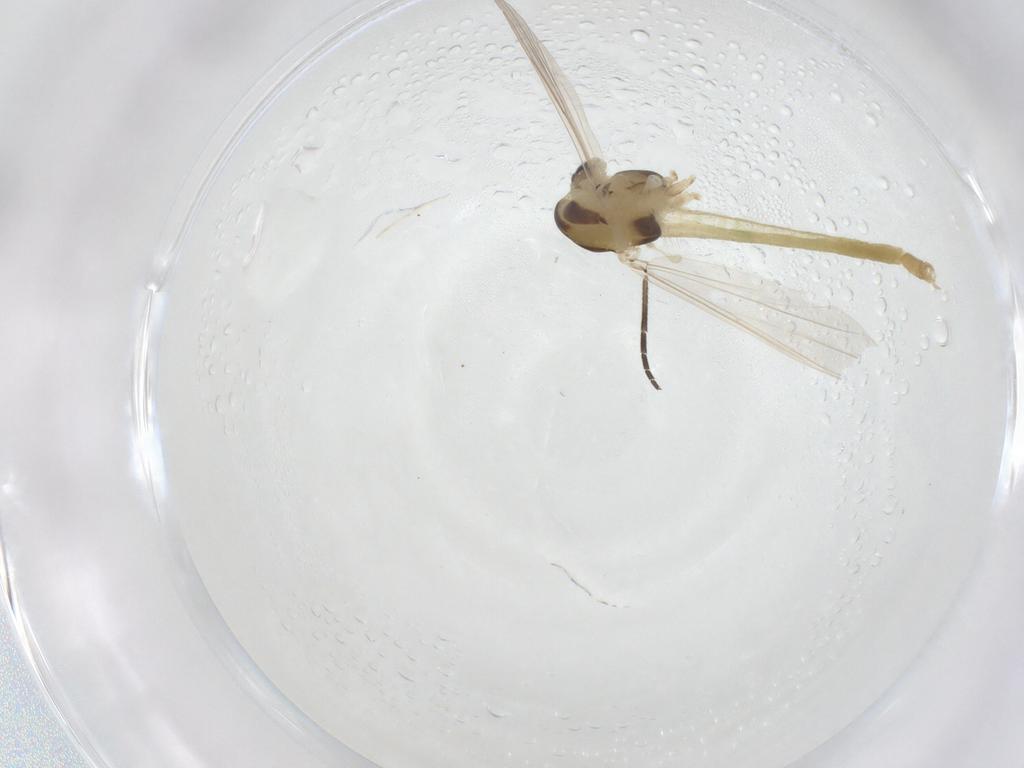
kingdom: Animalia
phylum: Arthropoda
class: Insecta
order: Diptera
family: Chironomidae
